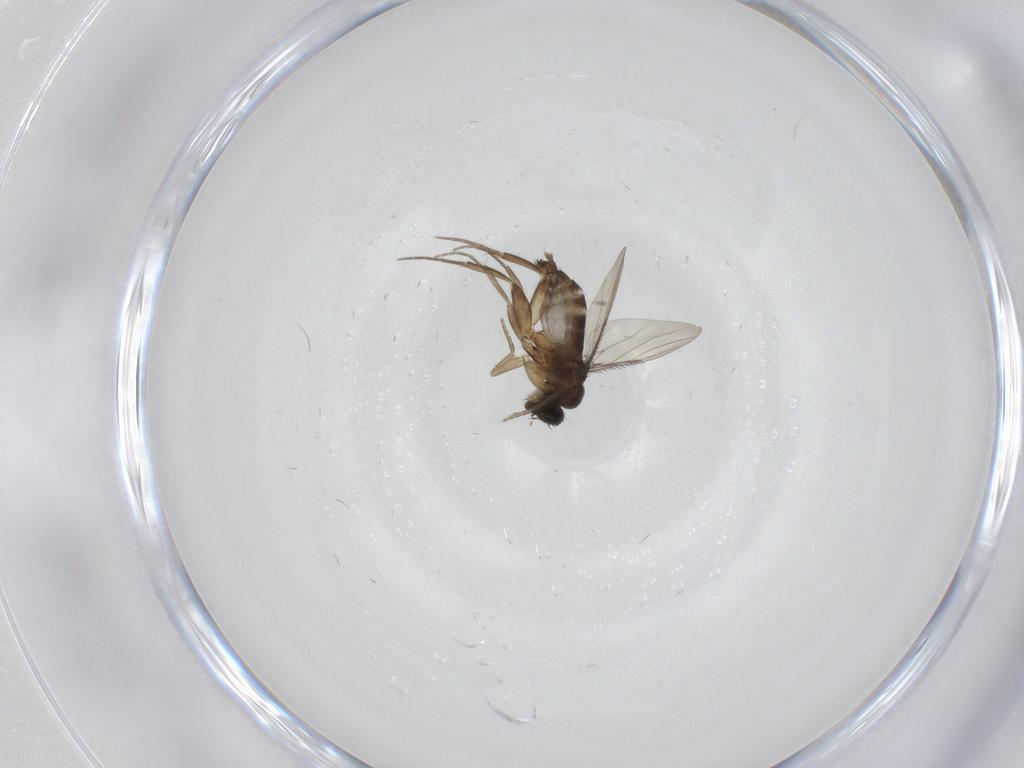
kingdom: Animalia
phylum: Arthropoda
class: Insecta
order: Diptera
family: Phoridae
